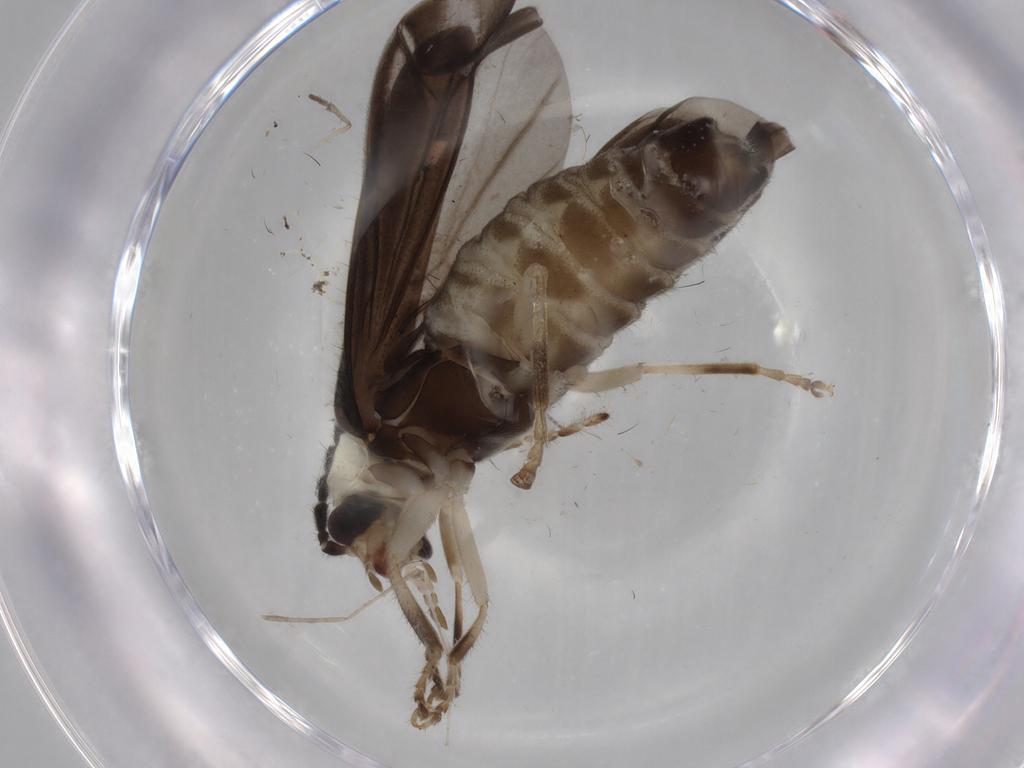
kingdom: Animalia
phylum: Arthropoda
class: Insecta
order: Coleoptera
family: Cantharidae
